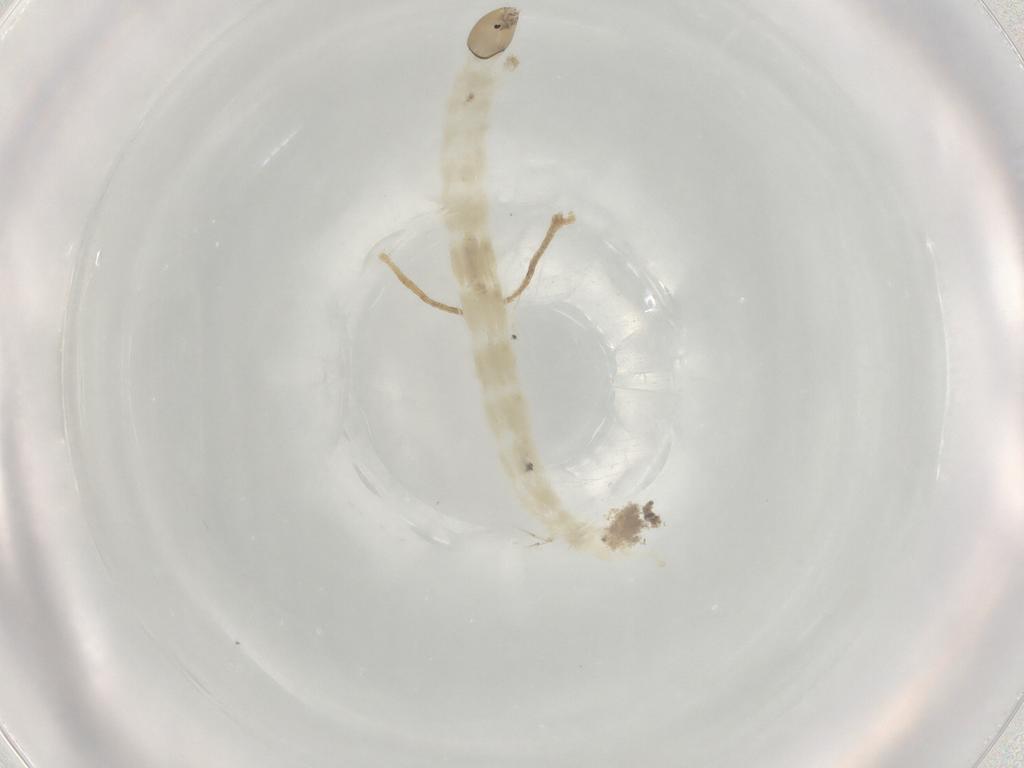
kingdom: Animalia
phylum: Arthropoda
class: Insecta
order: Diptera
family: Chironomidae
